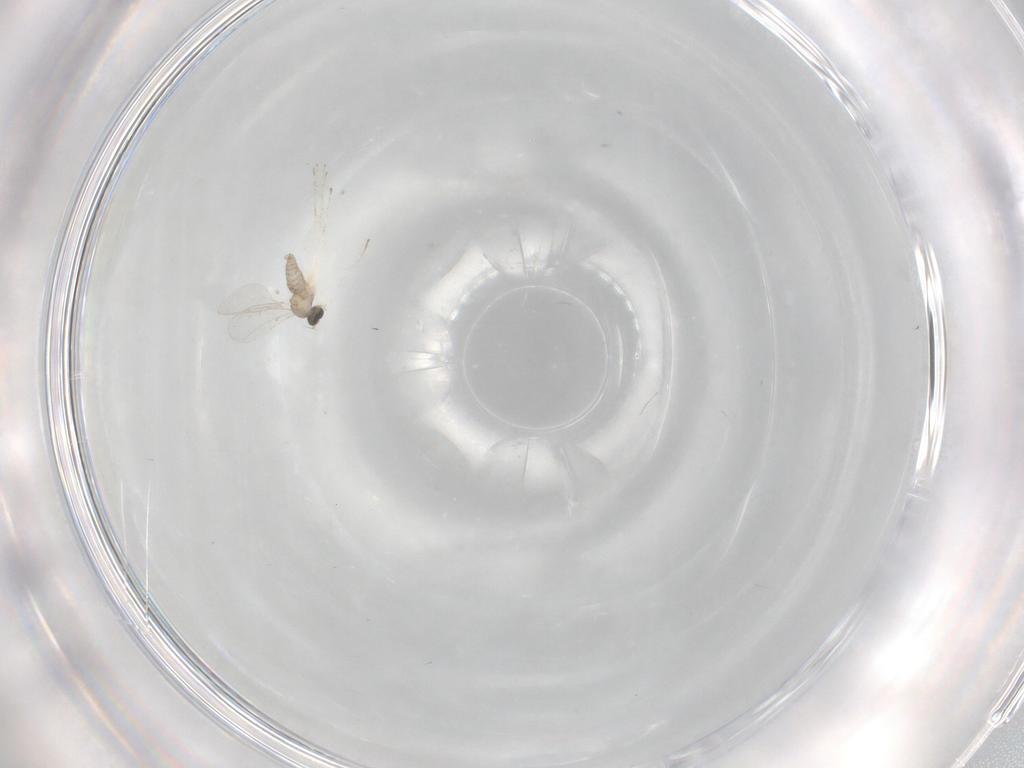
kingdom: Animalia
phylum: Arthropoda
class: Insecta
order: Diptera
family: Cecidomyiidae
